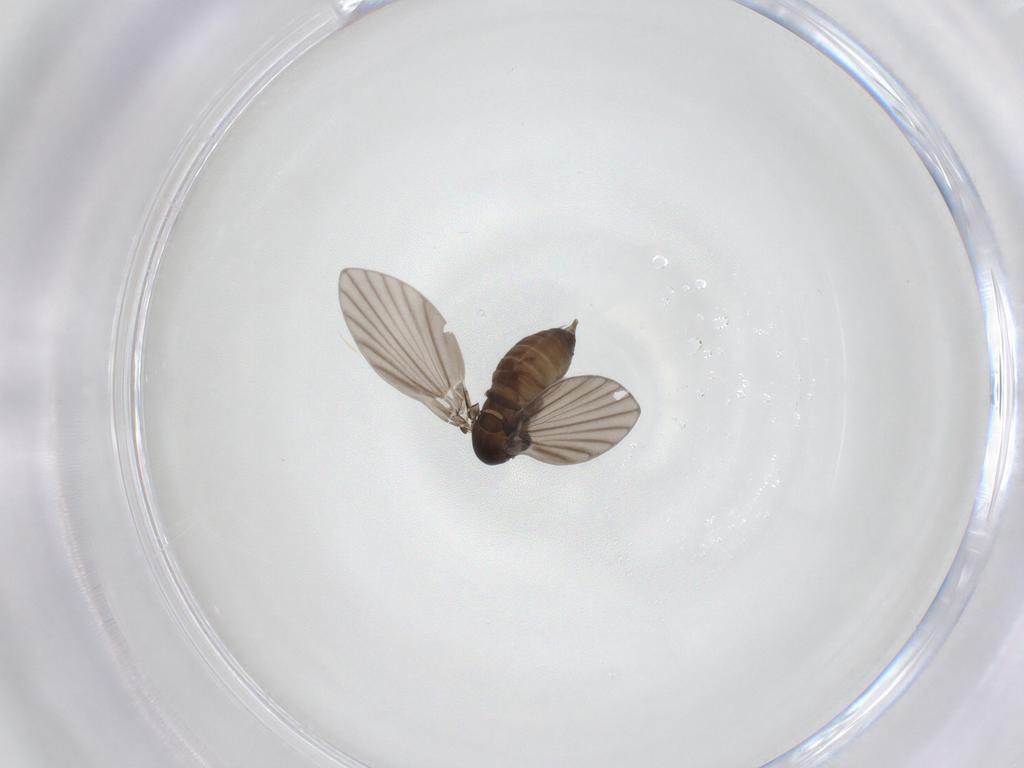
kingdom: Animalia
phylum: Arthropoda
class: Insecta
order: Diptera
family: Psychodidae
